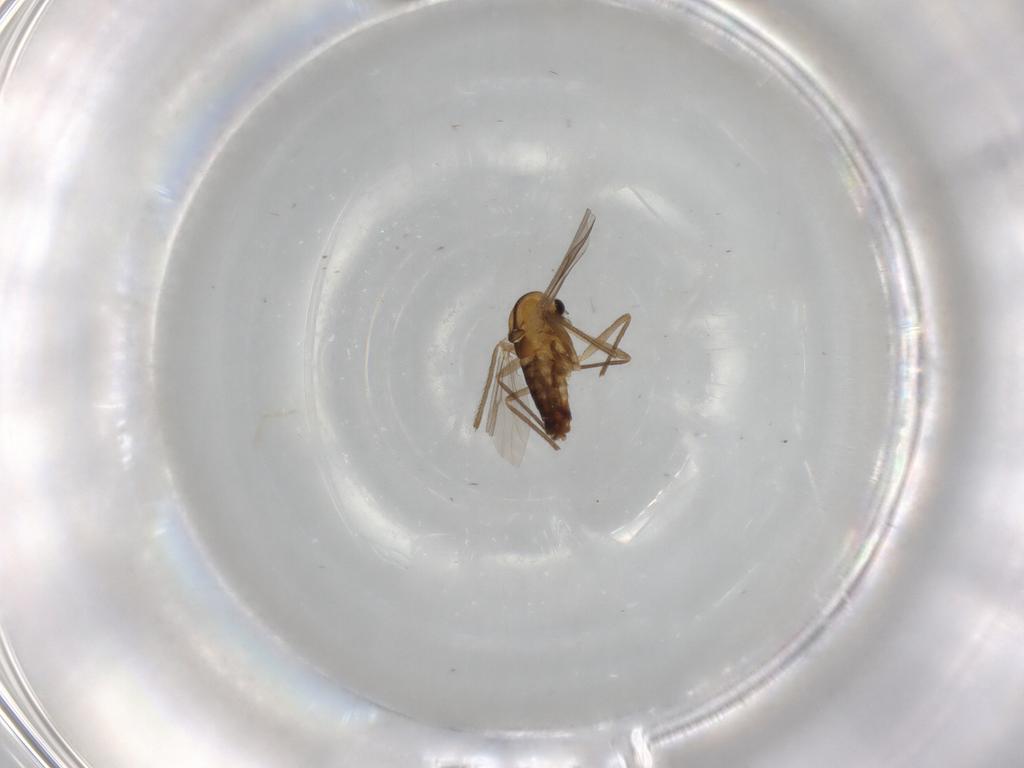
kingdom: Animalia
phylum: Arthropoda
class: Insecta
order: Diptera
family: Chironomidae
